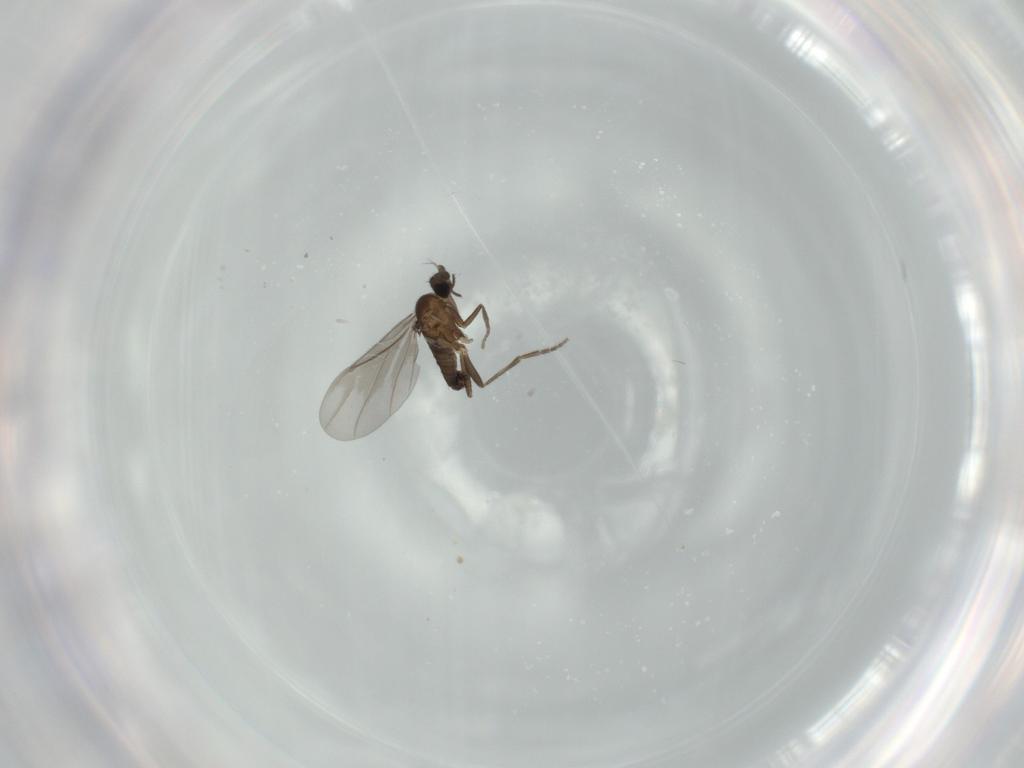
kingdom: Animalia
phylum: Arthropoda
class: Insecta
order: Diptera
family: Phoridae
